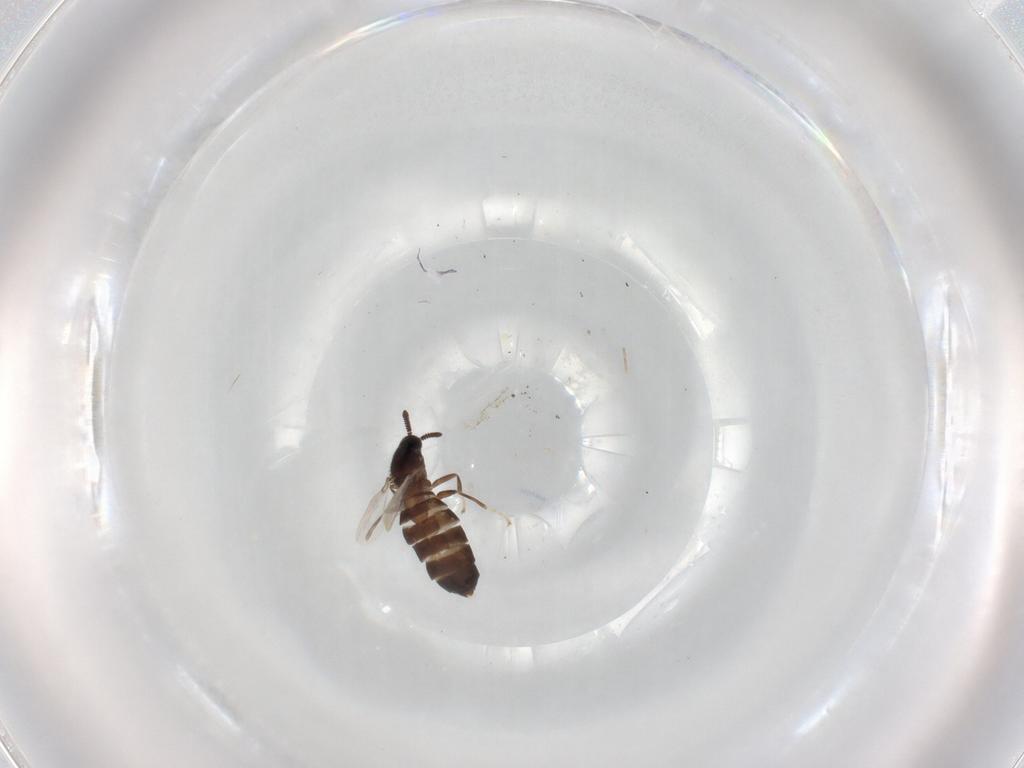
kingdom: Animalia
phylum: Arthropoda
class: Insecta
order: Diptera
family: Scatopsidae
